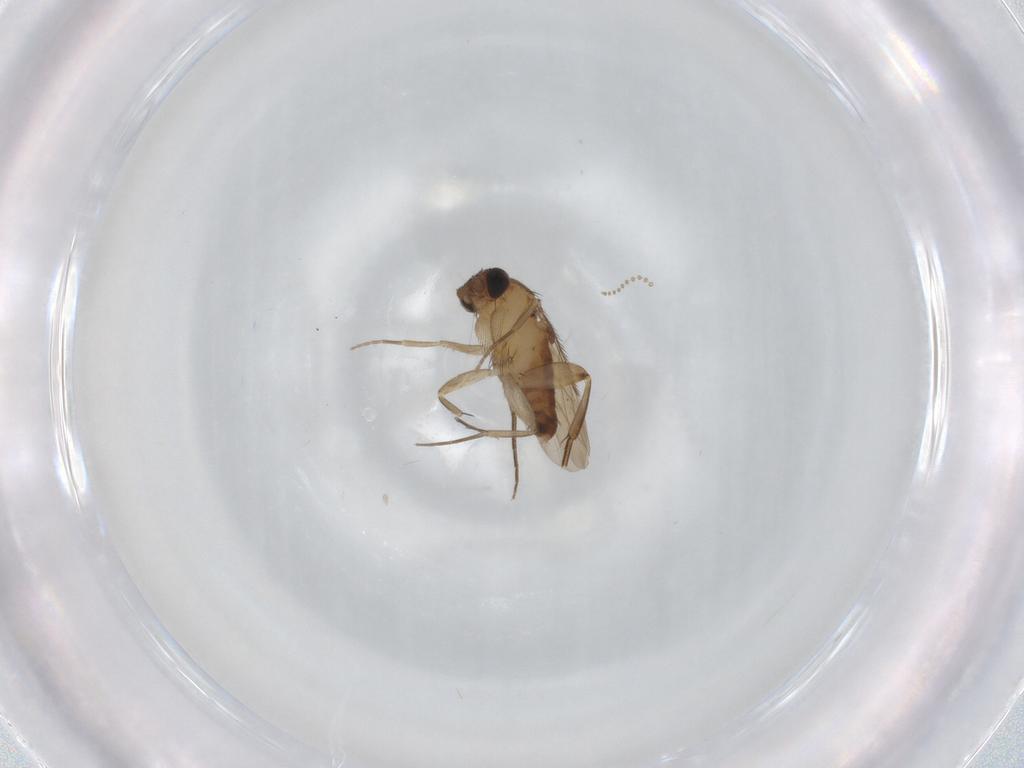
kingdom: Animalia
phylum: Arthropoda
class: Insecta
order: Diptera
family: Phoridae
